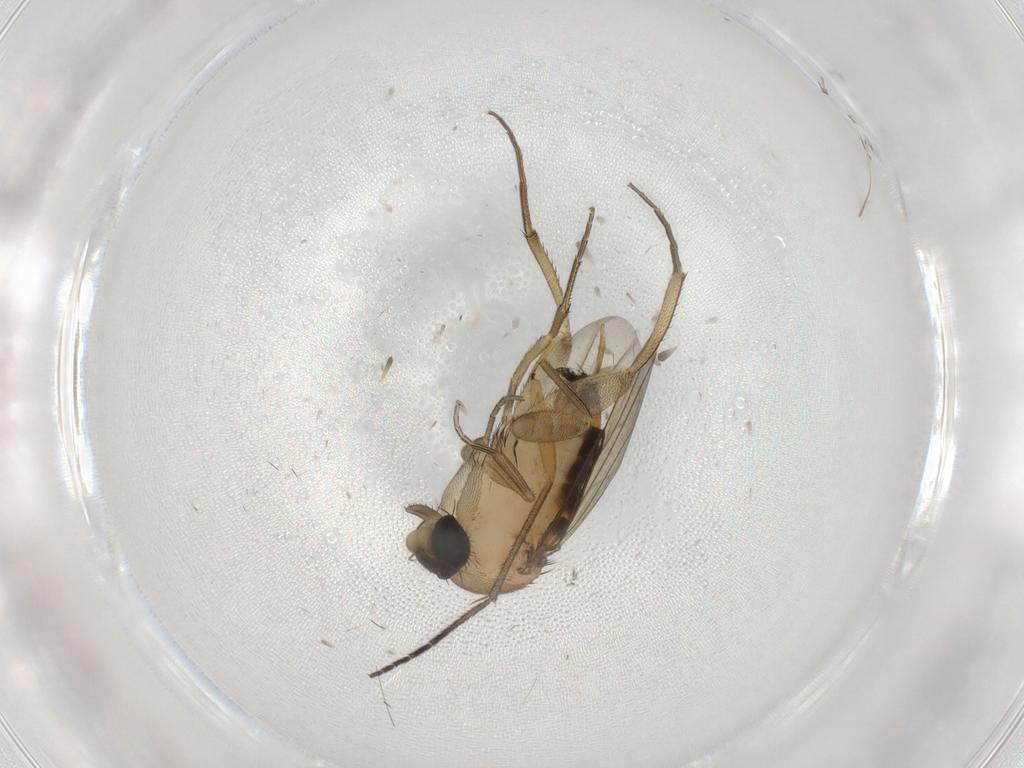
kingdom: Animalia
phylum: Arthropoda
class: Insecta
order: Diptera
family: Sciaridae
